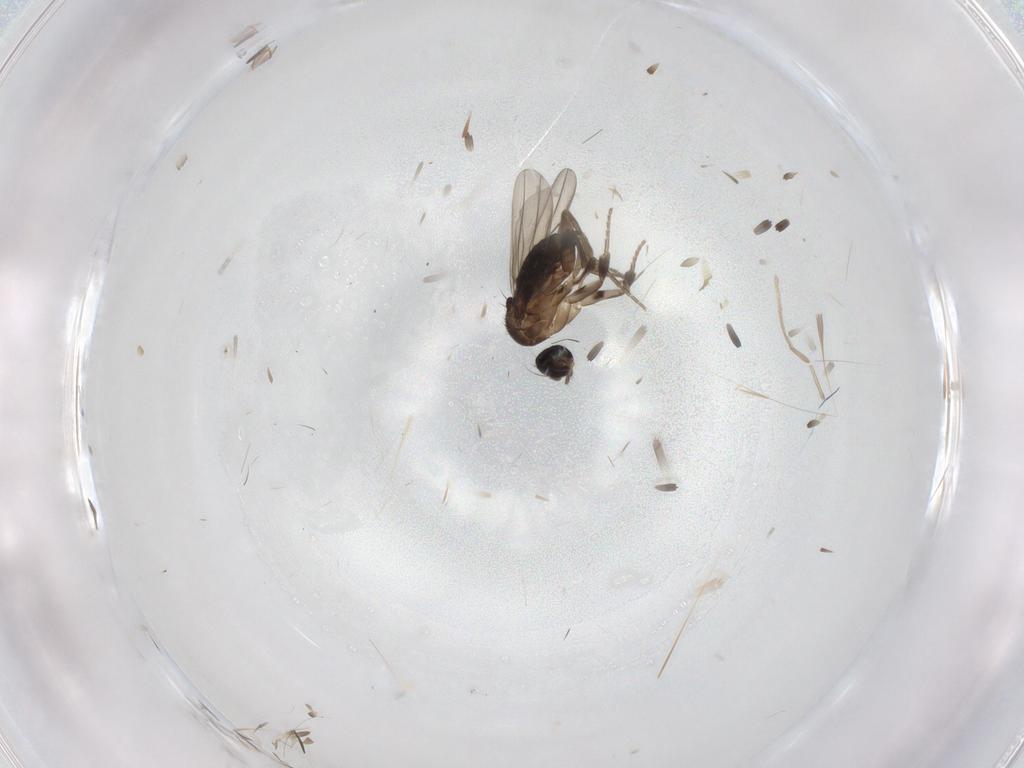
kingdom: Animalia
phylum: Arthropoda
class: Insecta
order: Diptera
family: Phoridae
